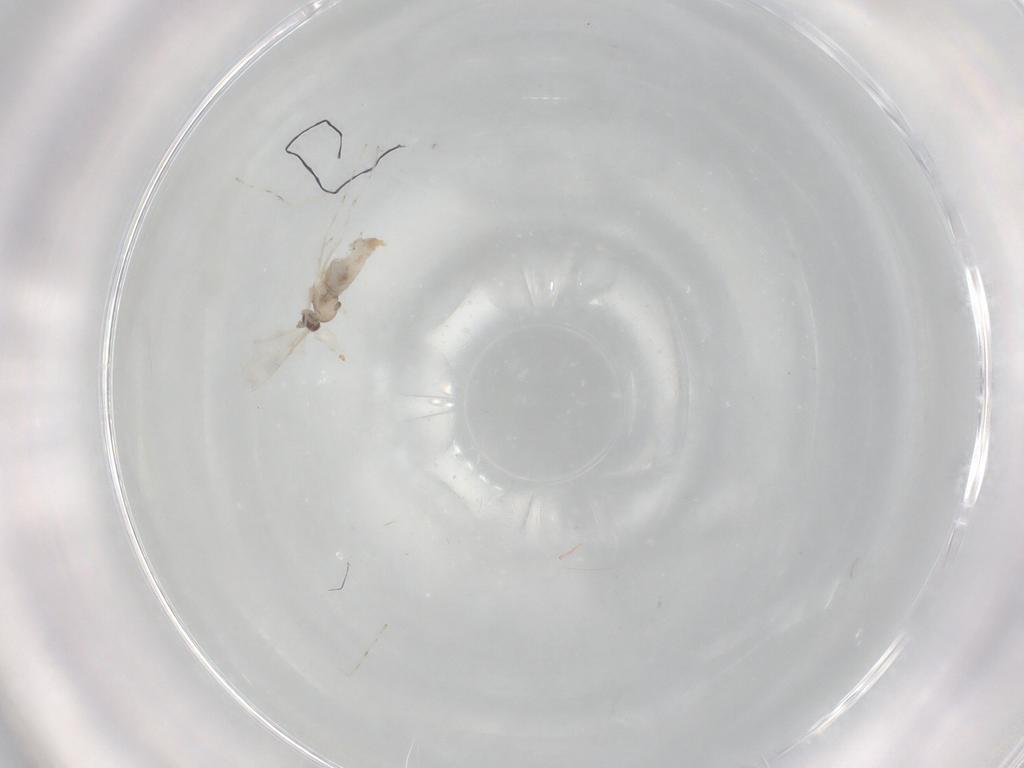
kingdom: Animalia
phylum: Arthropoda
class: Insecta
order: Diptera
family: Cecidomyiidae
